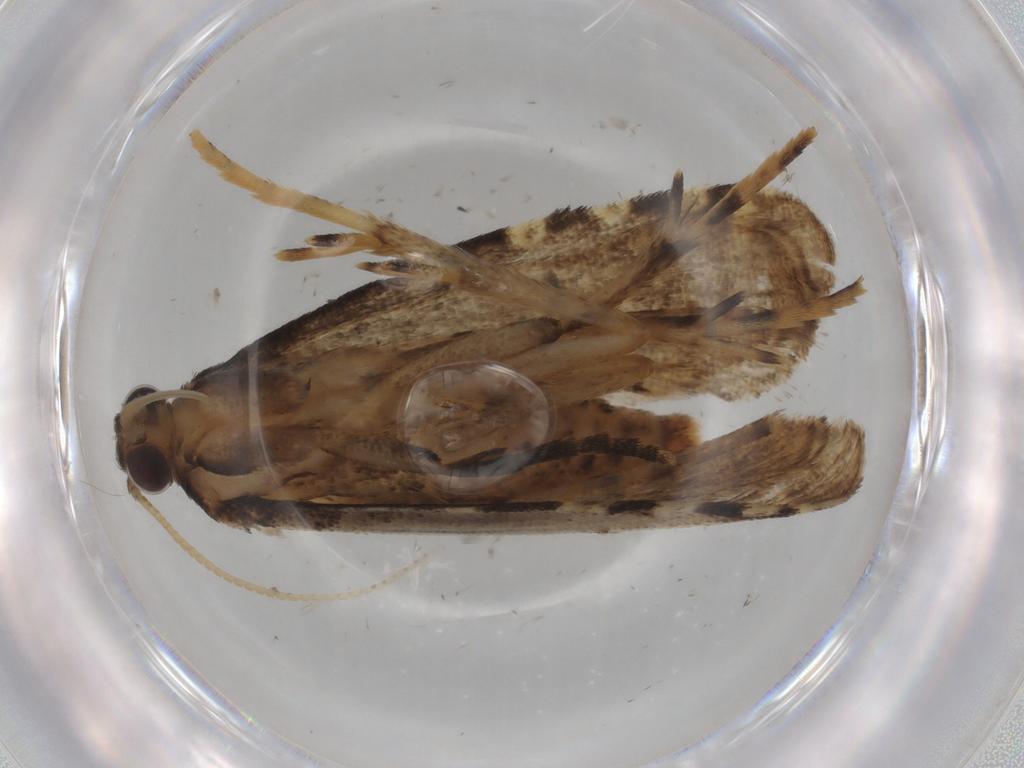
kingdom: Animalia
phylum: Arthropoda
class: Insecta
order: Lepidoptera
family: Crambidae
